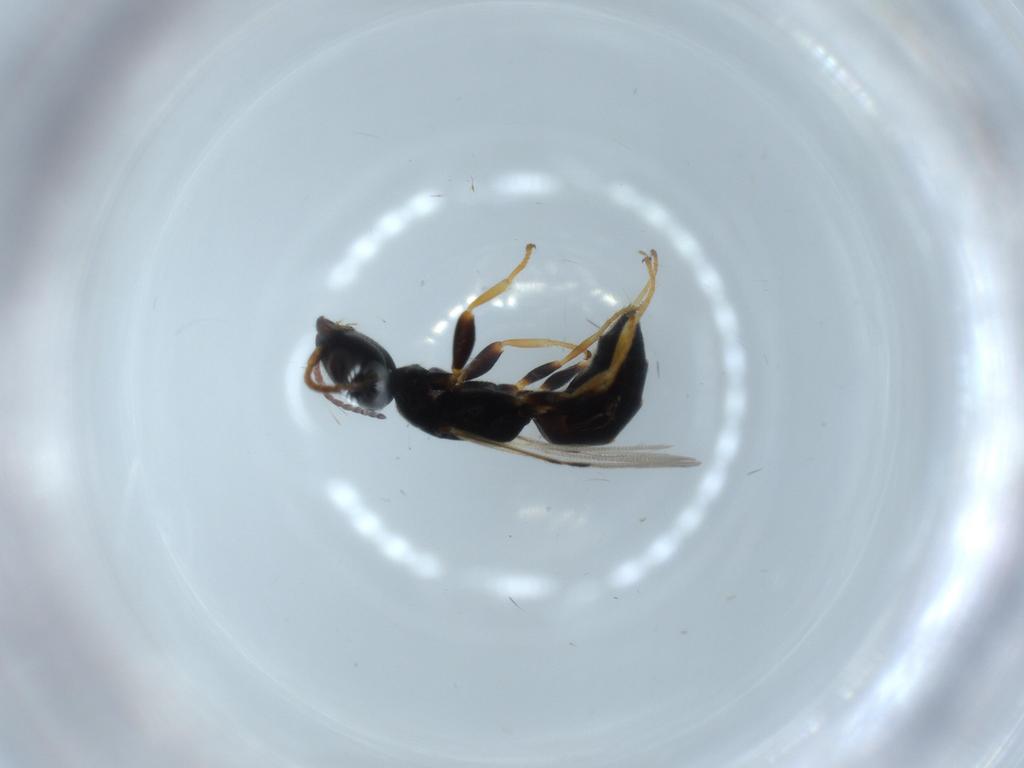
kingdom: Animalia
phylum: Arthropoda
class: Insecta
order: Hymenoptera
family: Bethylidae
